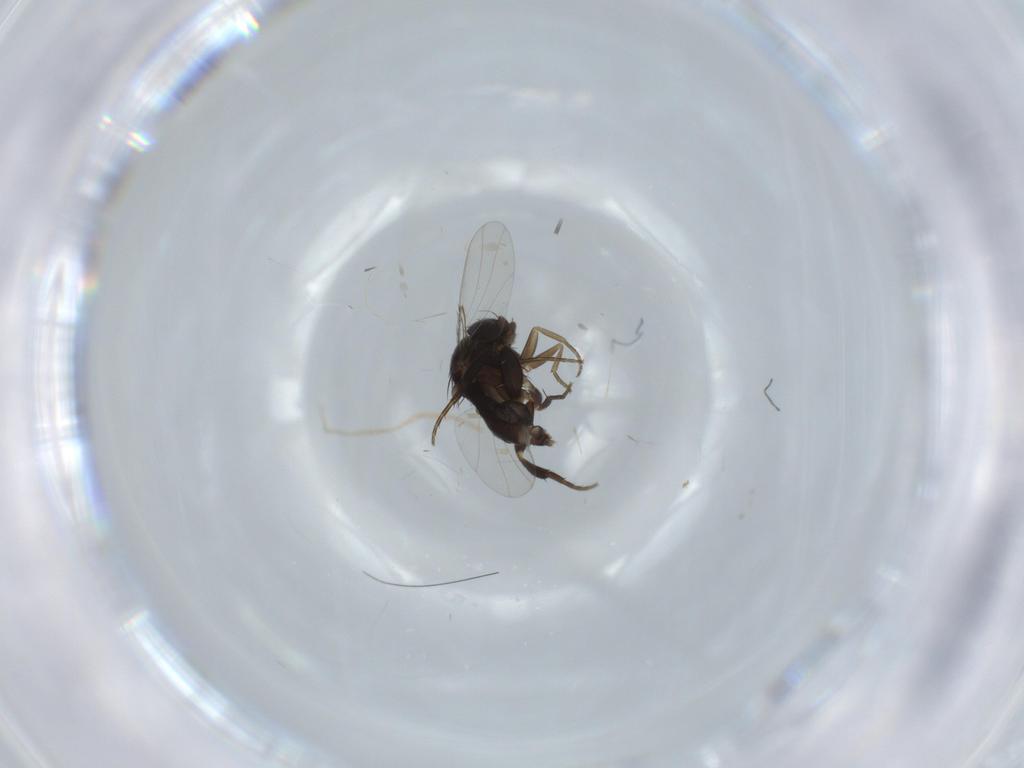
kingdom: Animalia
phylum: Arthropoda
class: Insecta
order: Diptera
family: Phoridae
